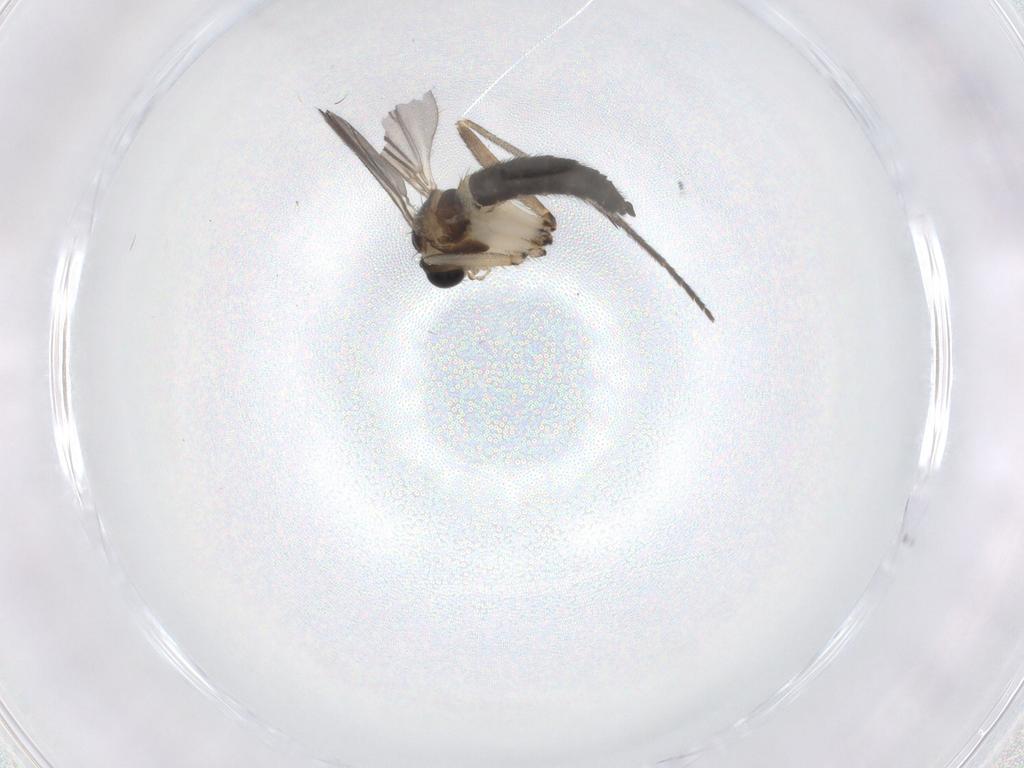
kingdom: Animalia
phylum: Arthropoda
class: Insecta
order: Diptera
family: Sciaridae
